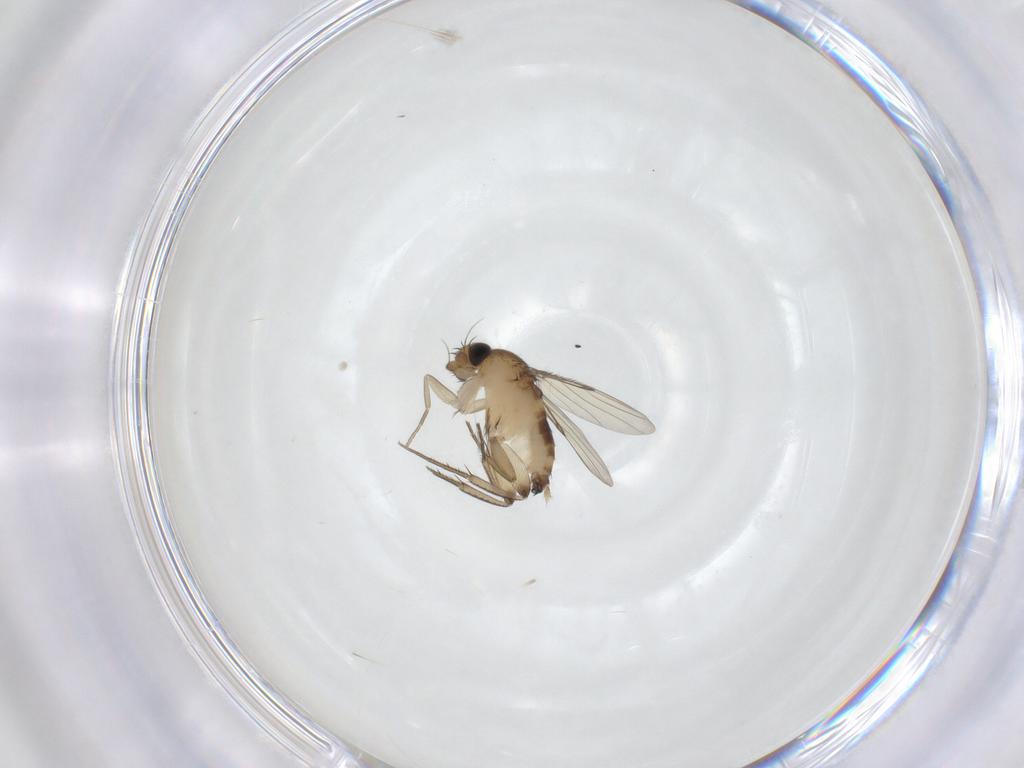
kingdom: Animalia
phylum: Arthropoda
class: Insecta
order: Diptera
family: Phoridae
